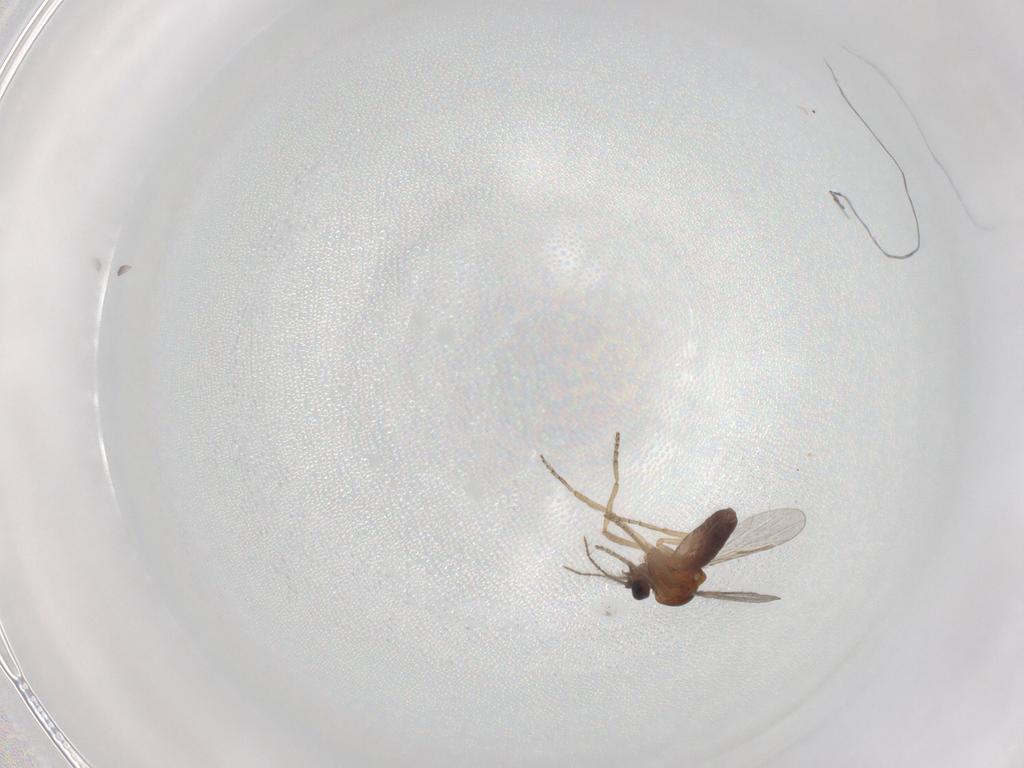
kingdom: Animalia
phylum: Arthropoda
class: Insecta
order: Diptera
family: Ceratopogonidae
